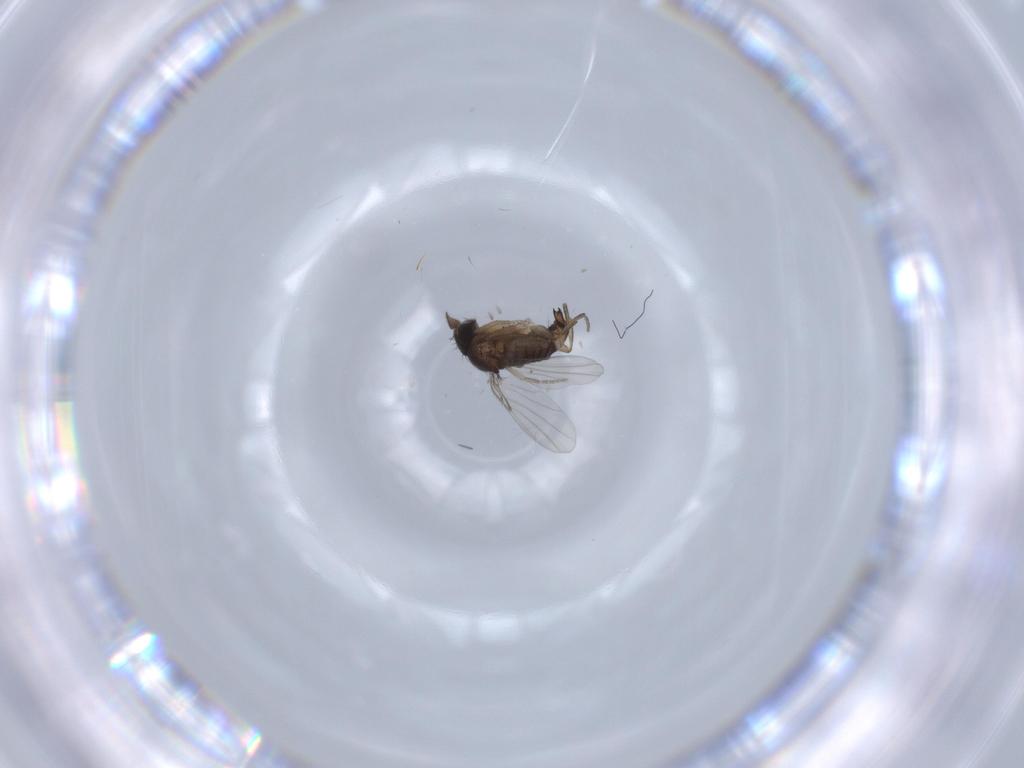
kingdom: Animalia
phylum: Arthropoda
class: Insecta
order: Diptera
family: Phoridae
